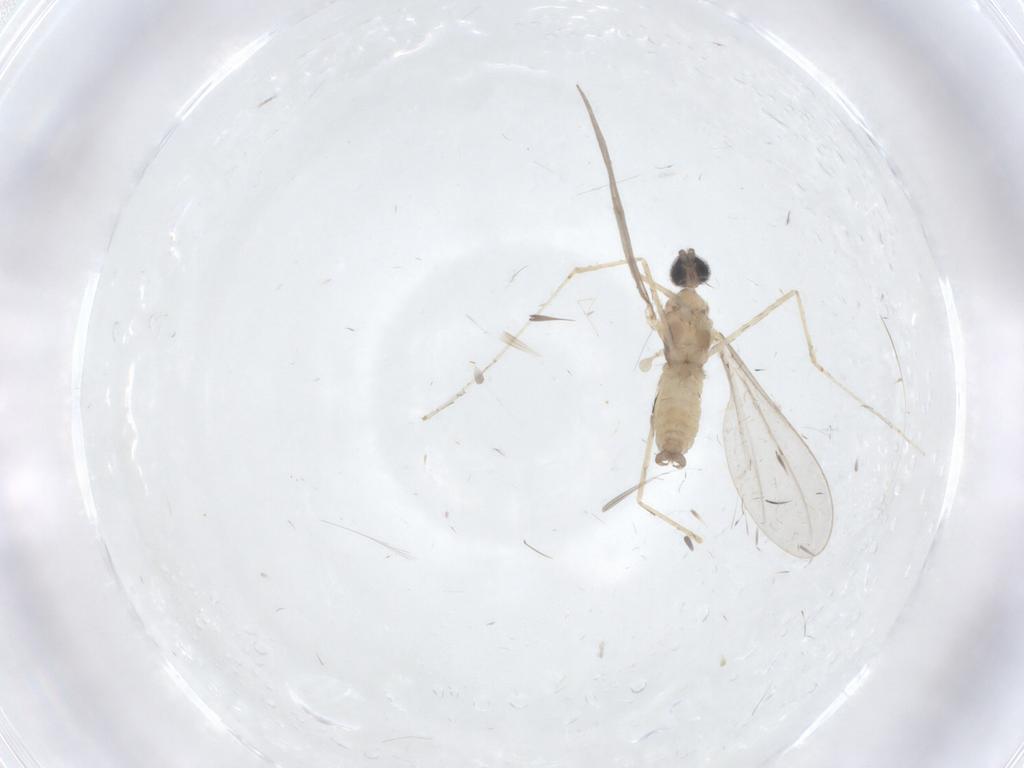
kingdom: Animalia
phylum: Arthropoda
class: Insecta
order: Diptera
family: Cecidomyiidae
